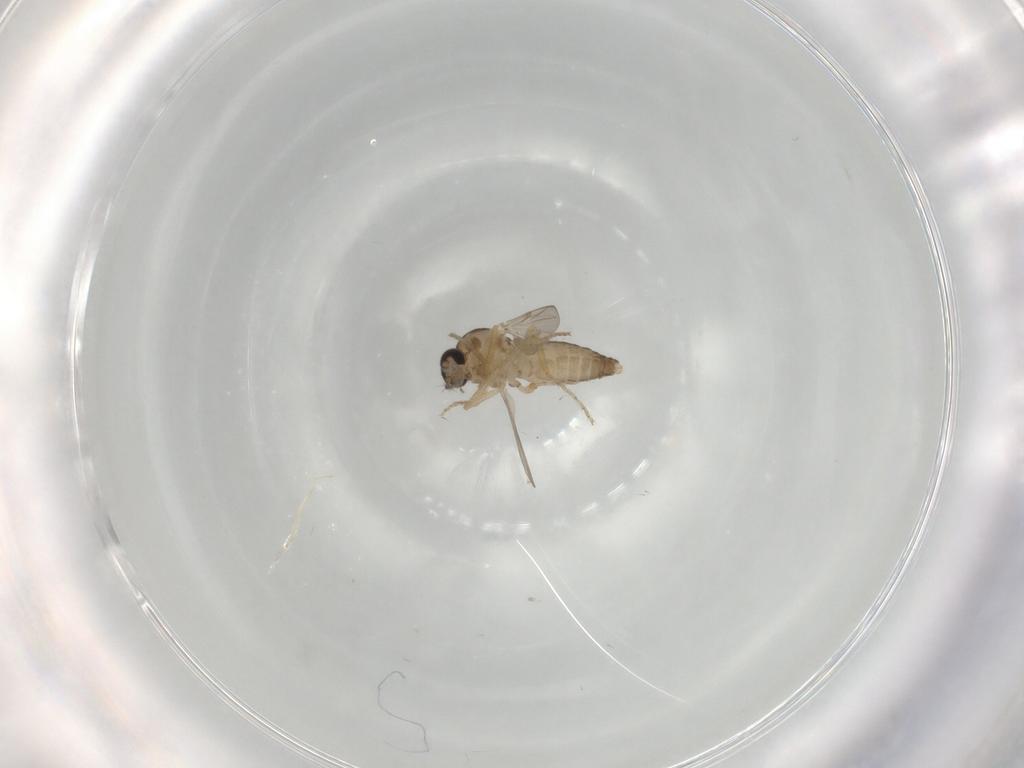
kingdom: Animalia
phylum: Arthropoda
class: Insecta
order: Diptera
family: Ceratopogonidae
